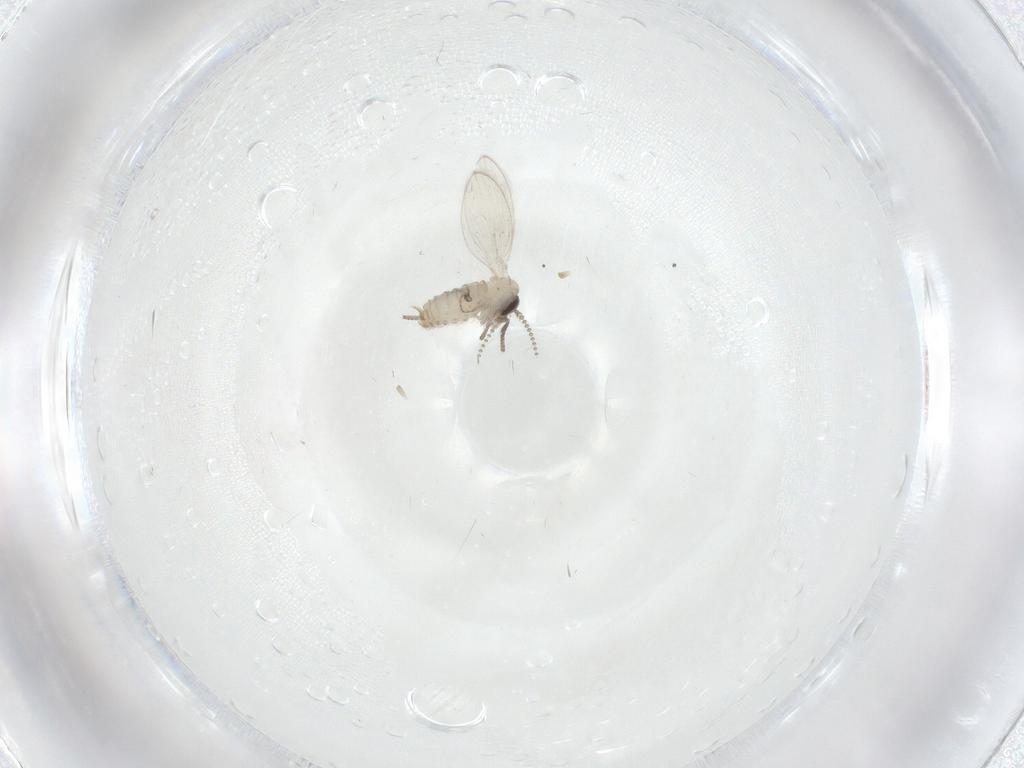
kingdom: Animalia
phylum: Arthropoda
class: Insecta
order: Diptera
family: Psychodidae
